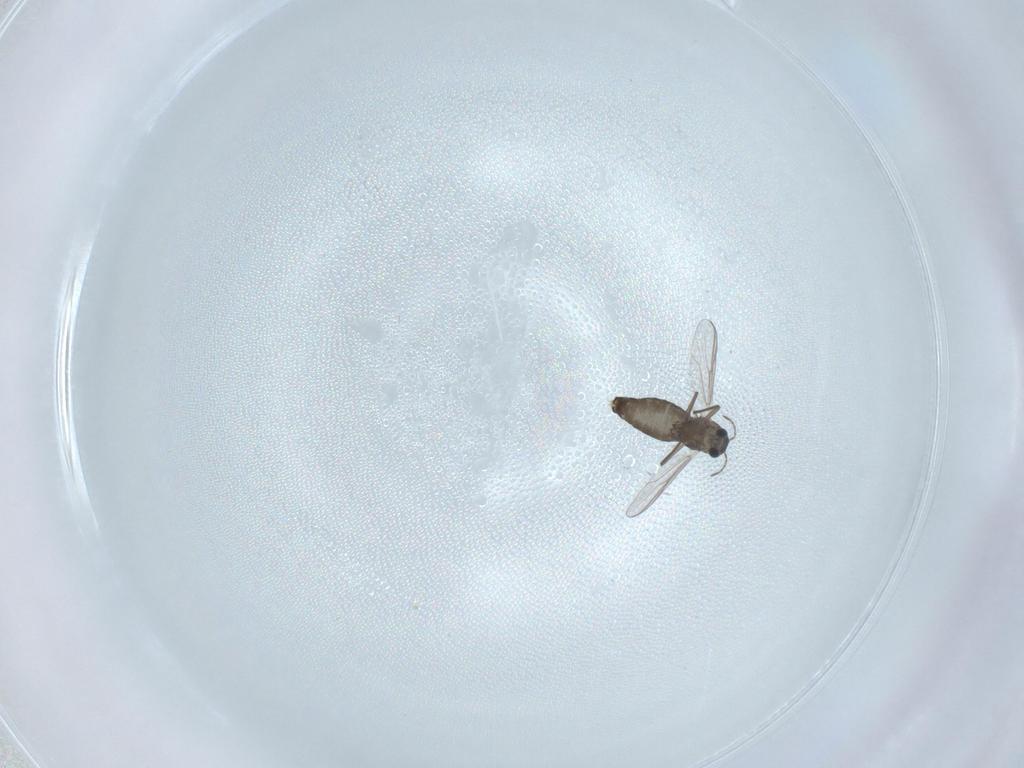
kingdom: Animalia
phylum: Arthropoda
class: Insecta
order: Diptera
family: Chironomidae
